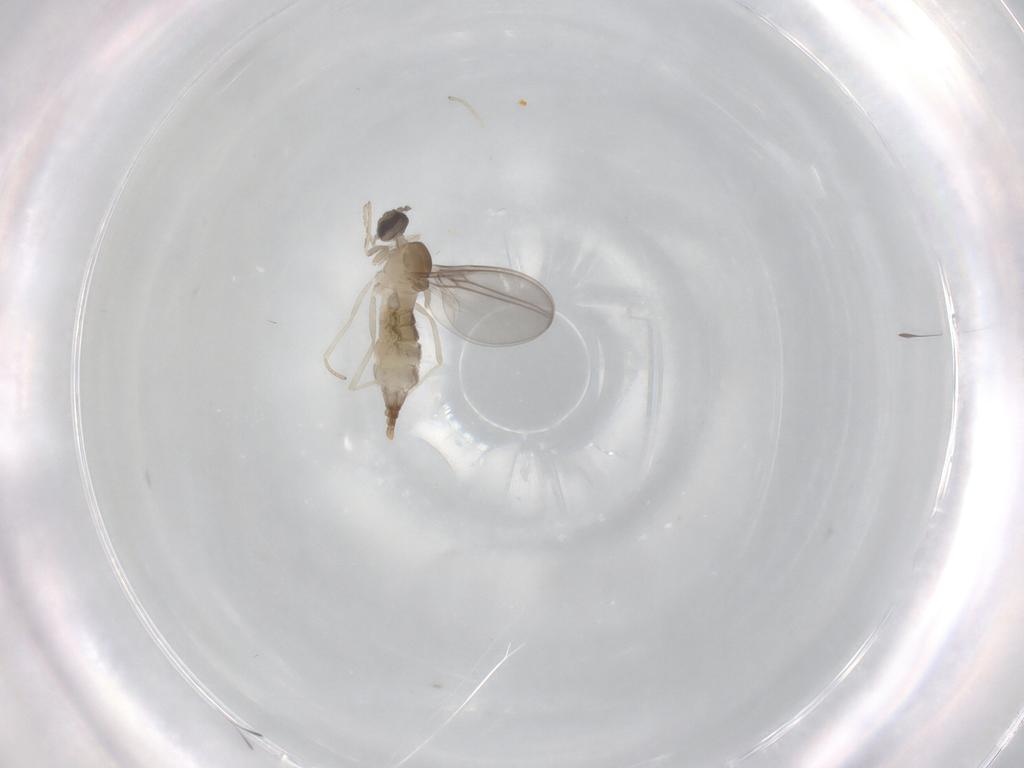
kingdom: Animalia
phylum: Arthropoda
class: Insecta
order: Diptera
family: Cecidomyiidae
